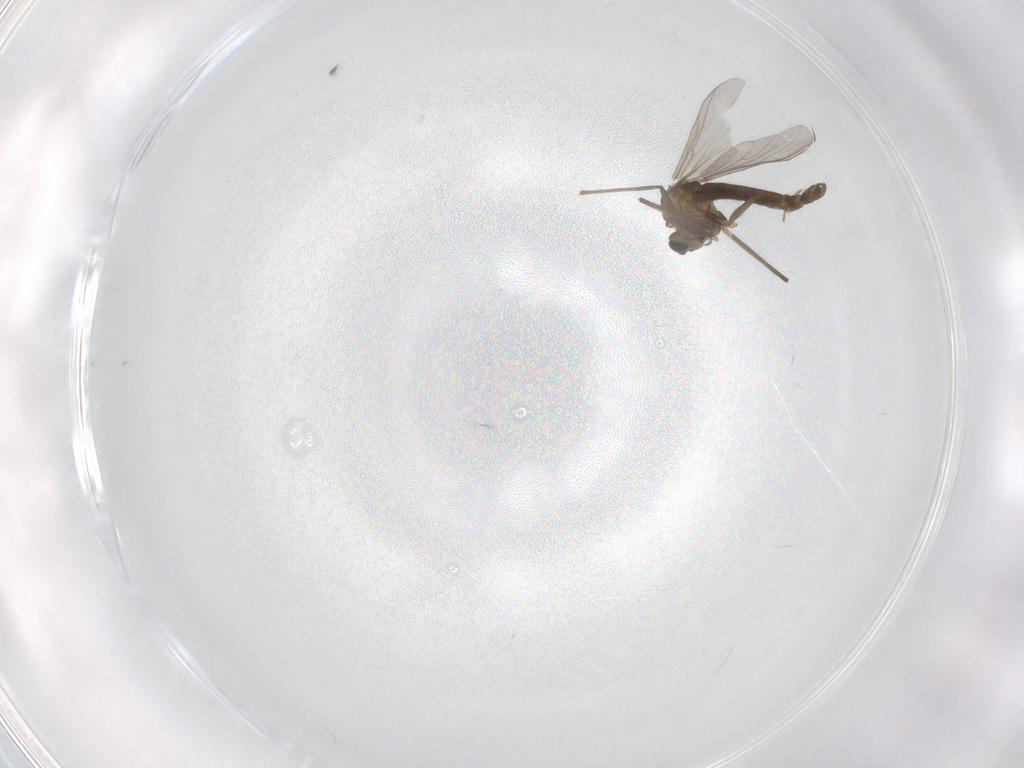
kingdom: Animalia
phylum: Arthropoda
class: Insecta
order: Diptera
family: Chironomidae
